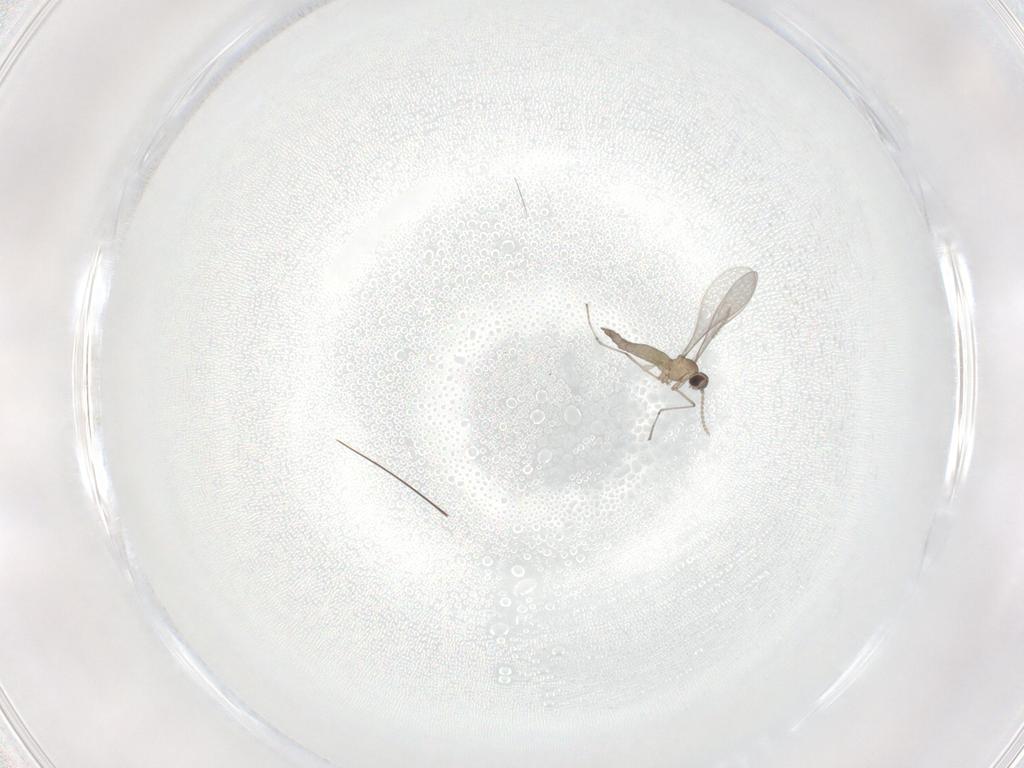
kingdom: Animalia
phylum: Arthropoda
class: Insecta
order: Diptera
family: Cecidomyiidae
